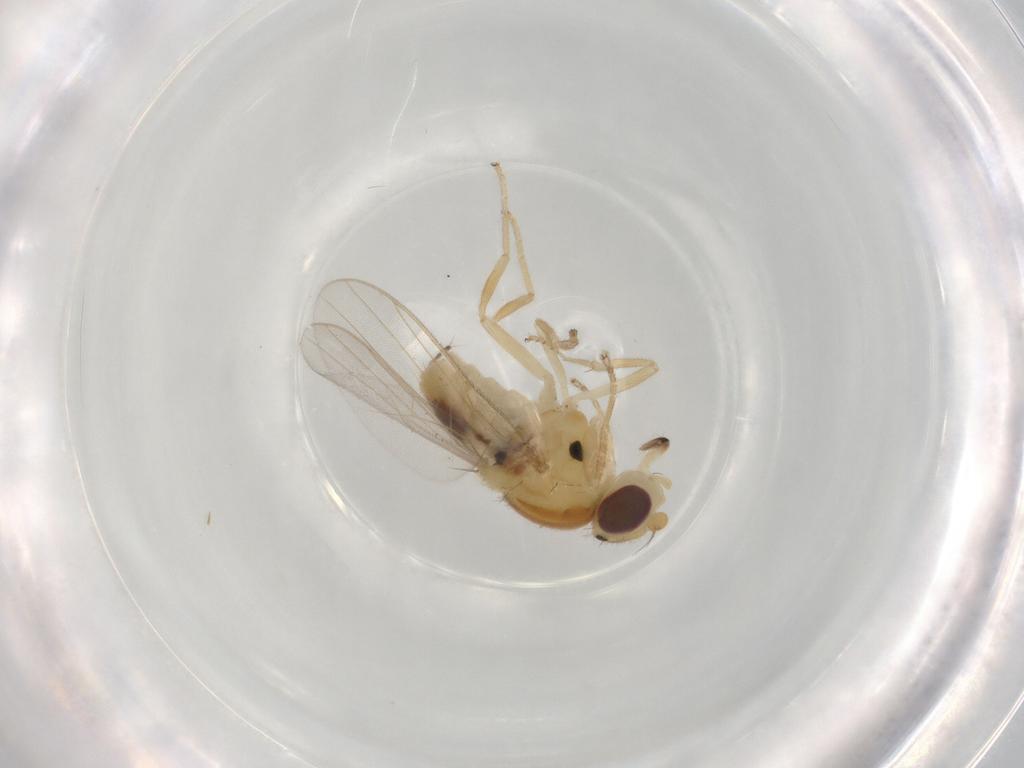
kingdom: Animalia
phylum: Arthropoda
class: Insecta
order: Diptera
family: Chloropidae
